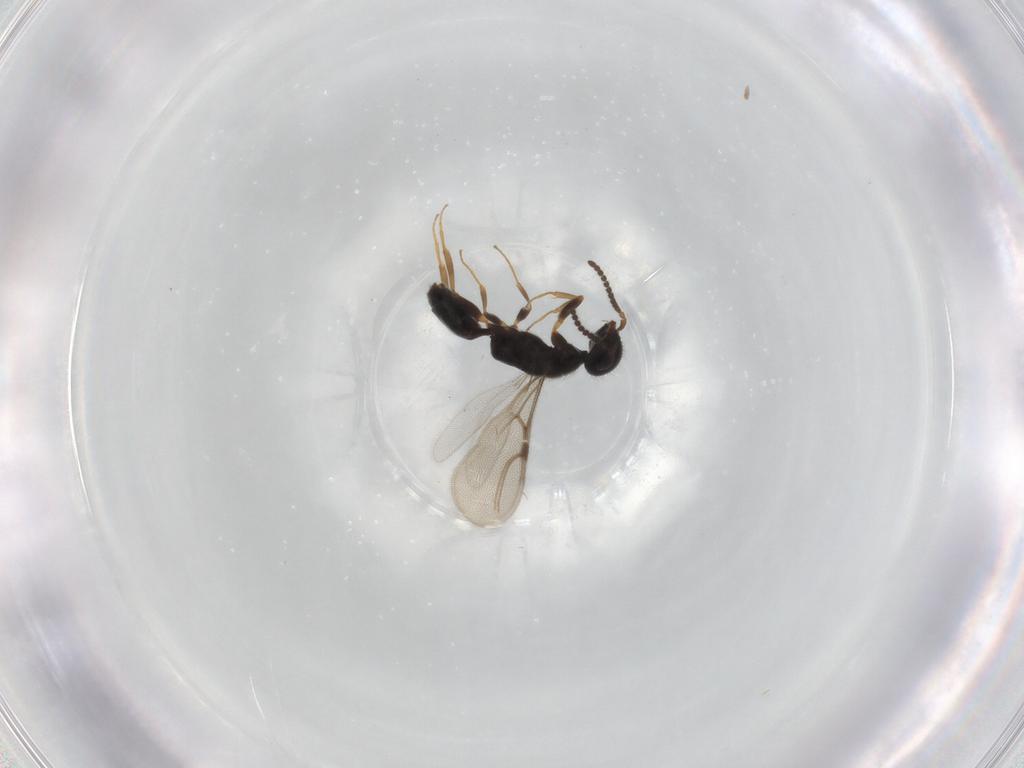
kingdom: Animalia
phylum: Arthropoda
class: Insecta
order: Hymenoptera
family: Bethylidae
